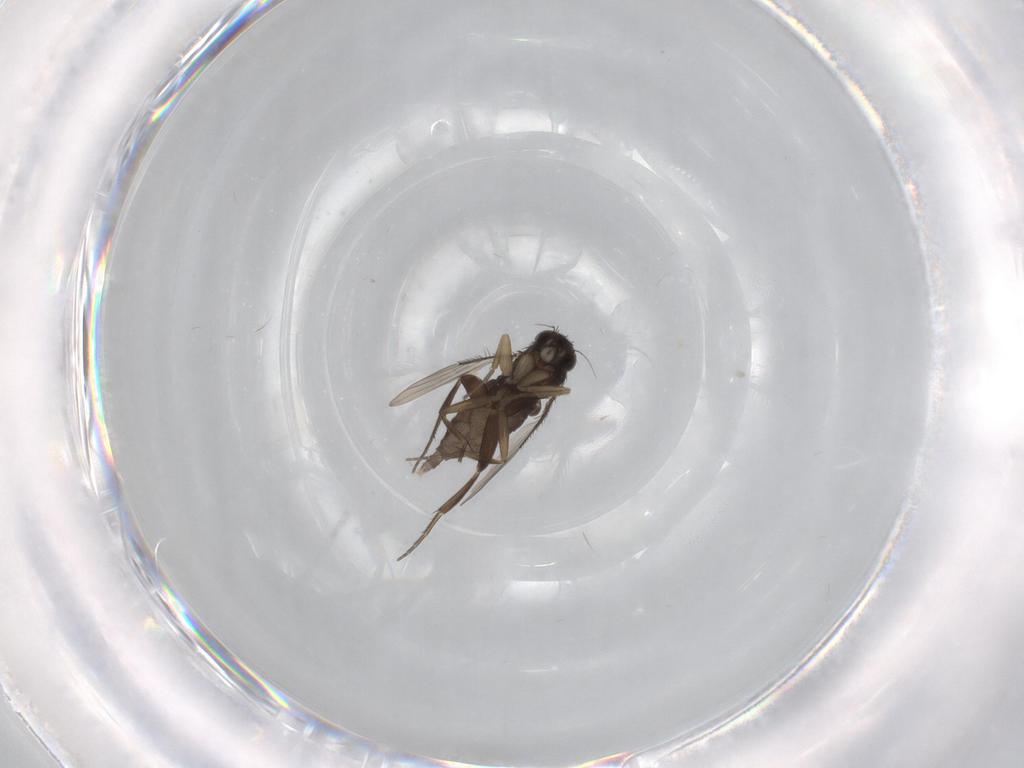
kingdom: Animalia
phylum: Arthropoda
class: Insecta
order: Diptera
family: Phoridae
